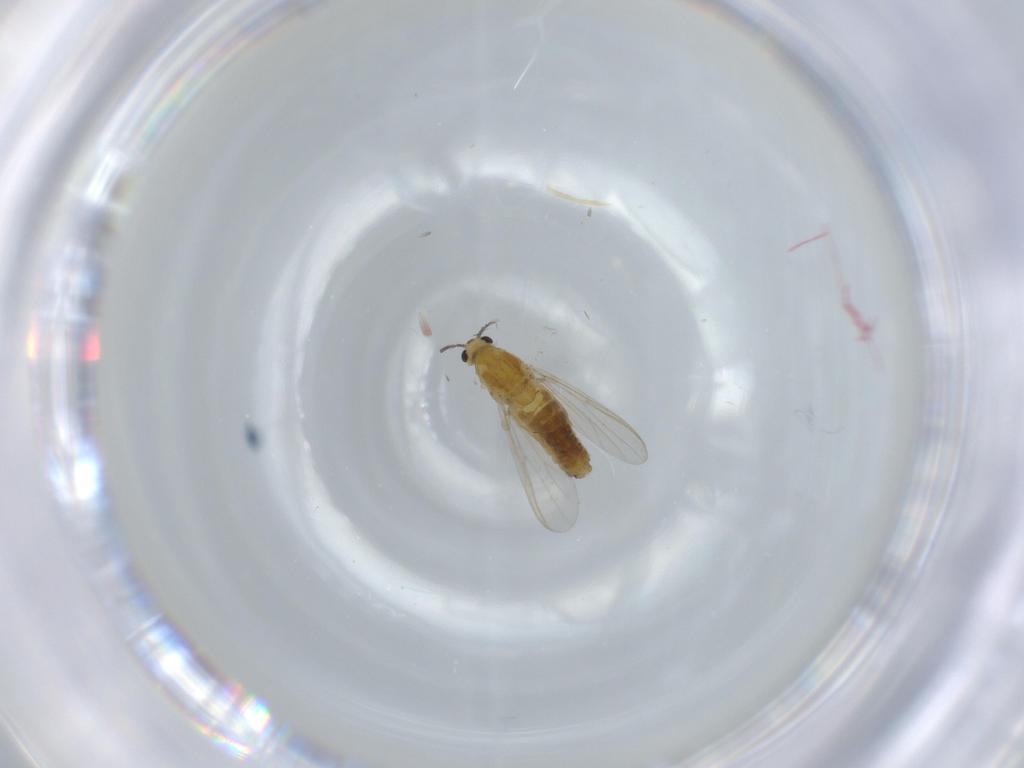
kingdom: Animalia
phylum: Arthropoda
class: Insecta
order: Diptera
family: Chironomidae
